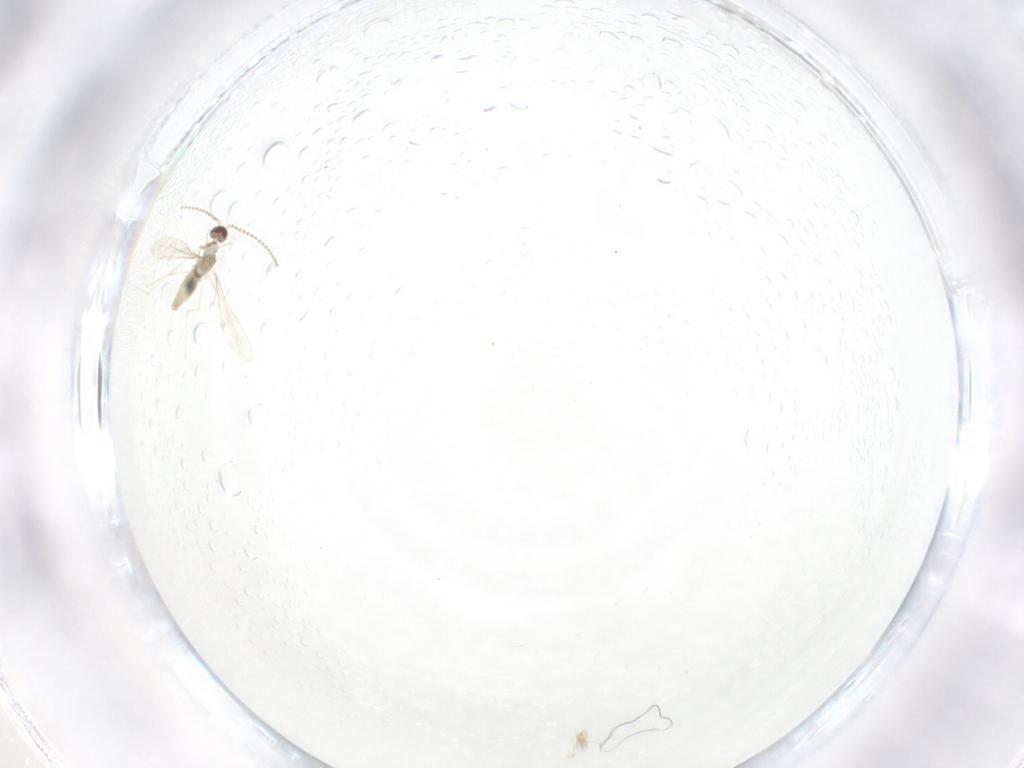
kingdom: Animalia
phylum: Arthropoda
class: Insecta
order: Diptera
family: Cecidomyiidae
